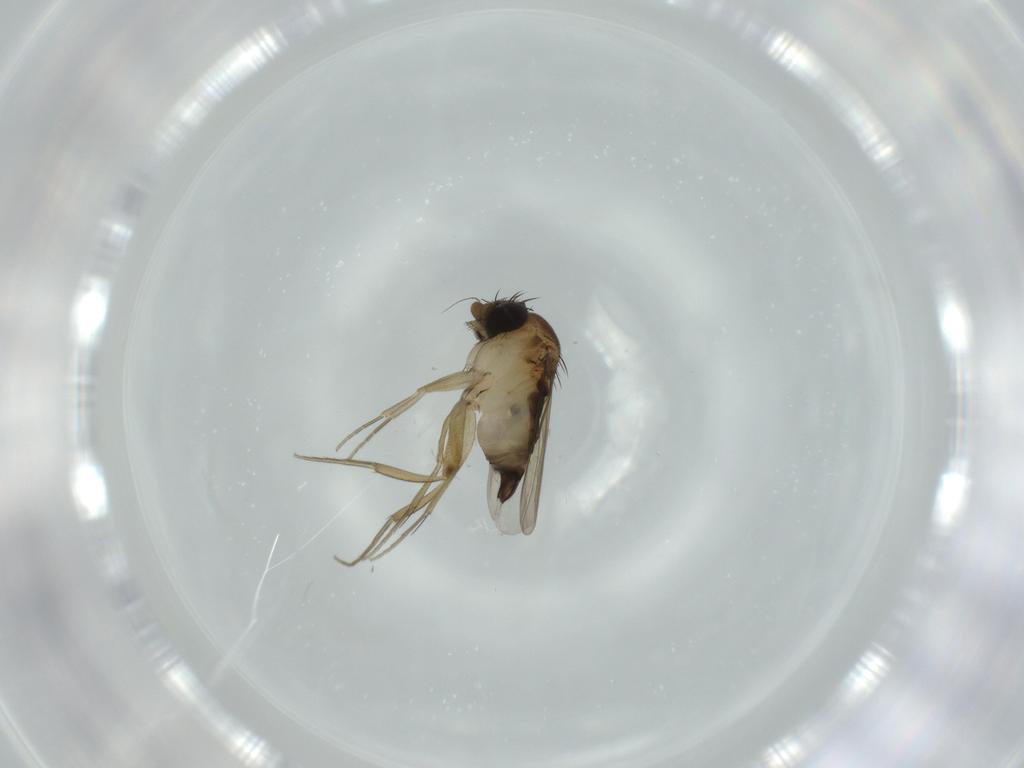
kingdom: Animalia
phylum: Arthropoda
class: Insecta
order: Diptera
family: Phoridae
